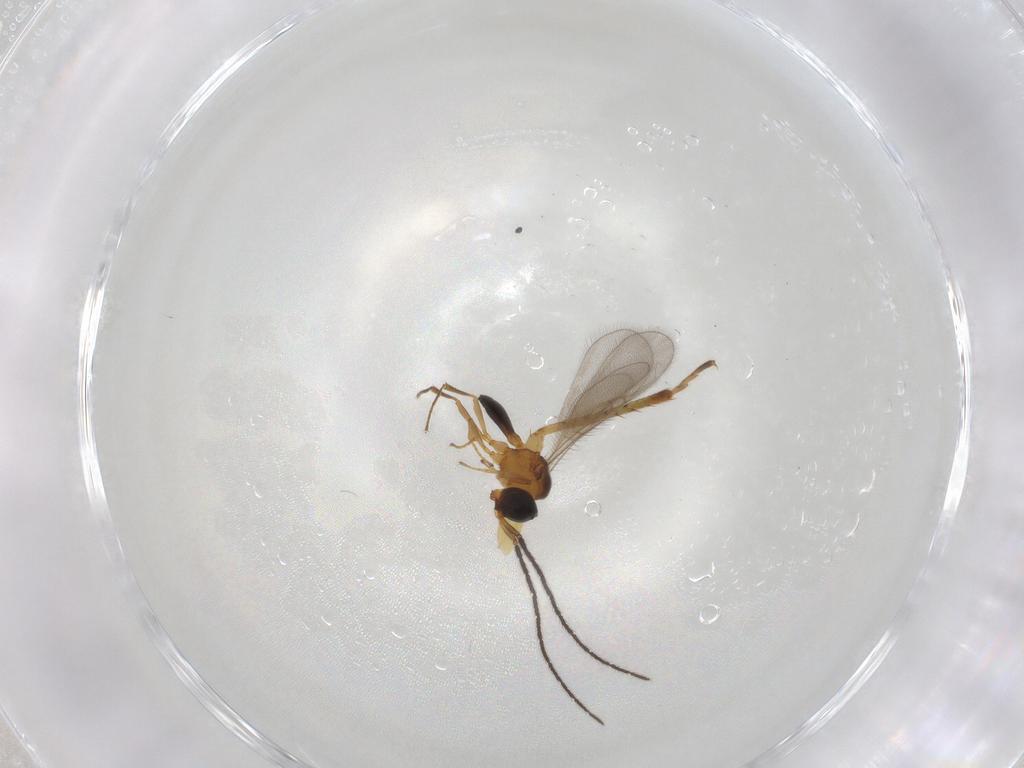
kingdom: Animalia
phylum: Arthropoda
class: Insecta
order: Hymenoptera
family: Scelionidae
